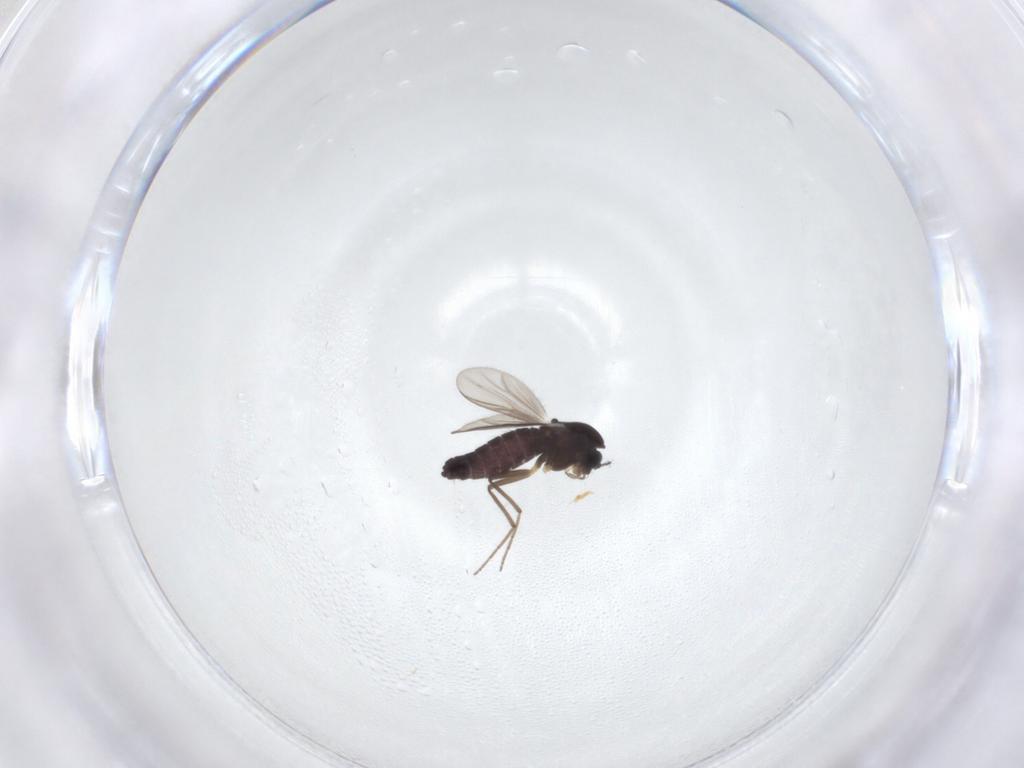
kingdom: Animalia
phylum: Arthropoda
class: Insecta
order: Diptera
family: Chironomidae
